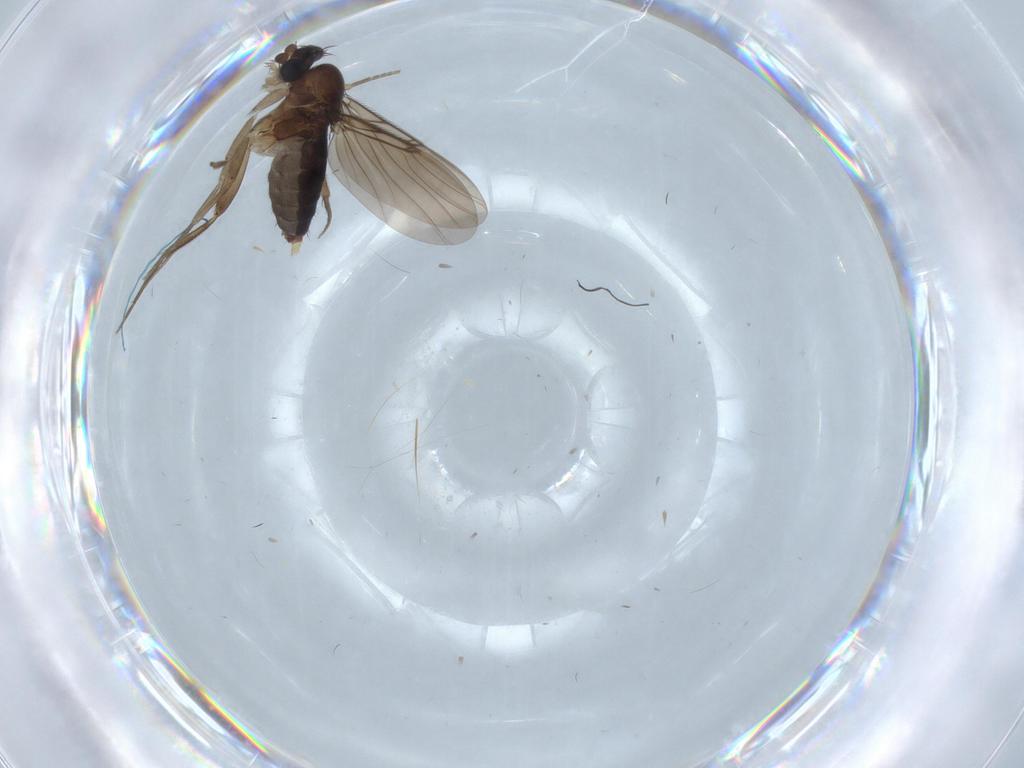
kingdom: Animalia
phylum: Arthropoda
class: Insecta
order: Diptera
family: Phoridae
